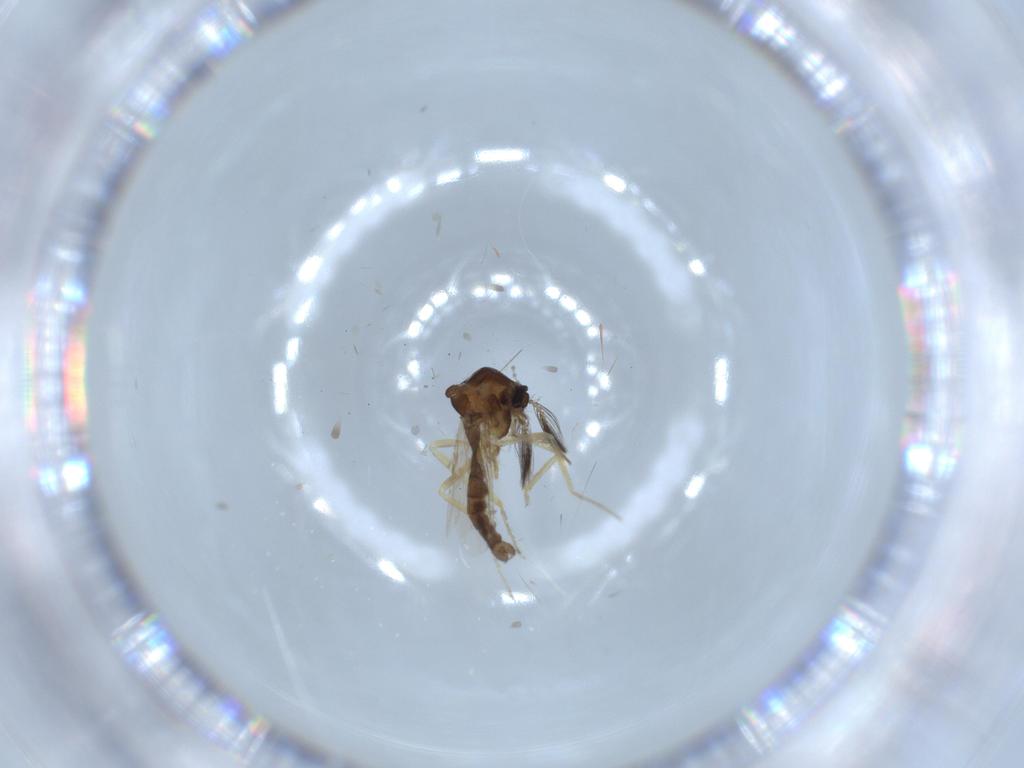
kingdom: Animalia
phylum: Arthropoda
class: Insecta
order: Diptera
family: Ceratopogonidae
